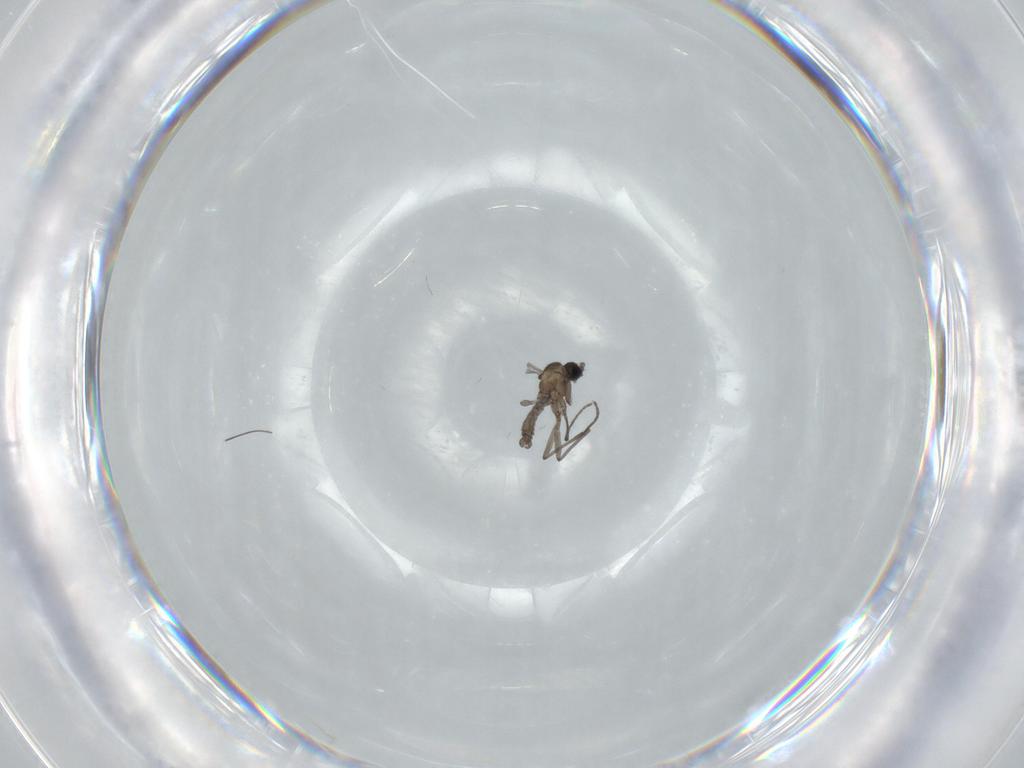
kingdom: Animalia
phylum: Arthropoda
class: Insecta
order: Diptera
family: Sciaridae
